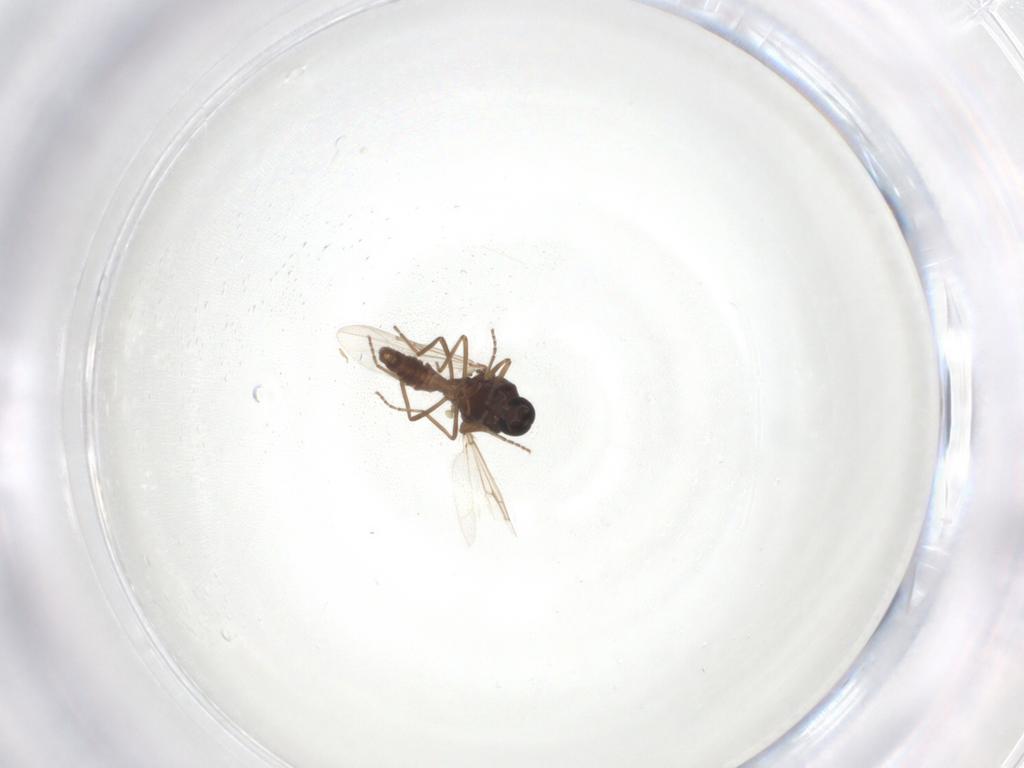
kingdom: Animalia
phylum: Arthropoda
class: Insecta
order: Diptera
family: Ceratopogonidae
